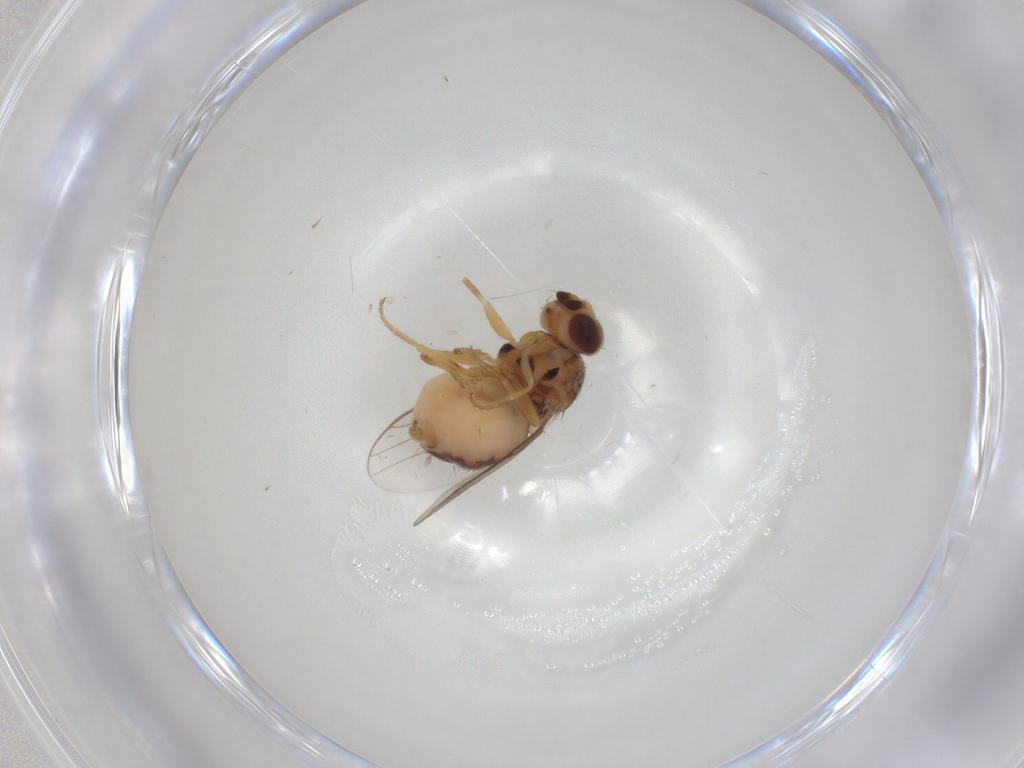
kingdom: Animalia
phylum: Arthropoda
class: Insecta
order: Diptera
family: Chloropidae
